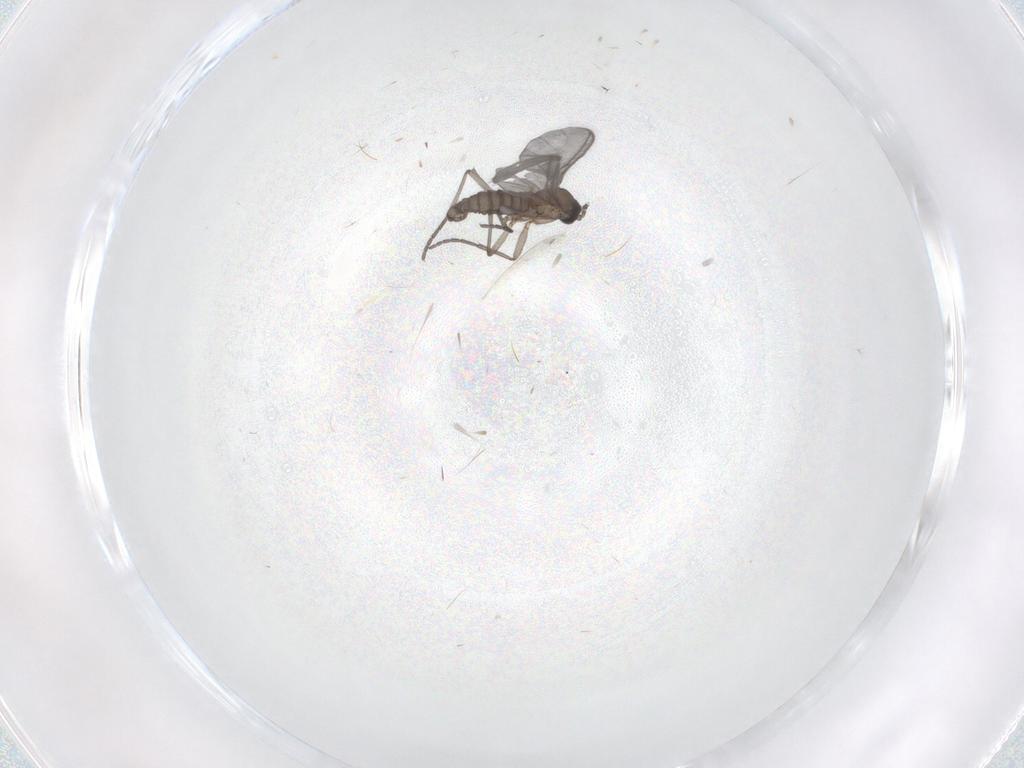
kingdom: Animalia
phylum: Arthropoda
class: Insecta
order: Diptera
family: Sciaridae
